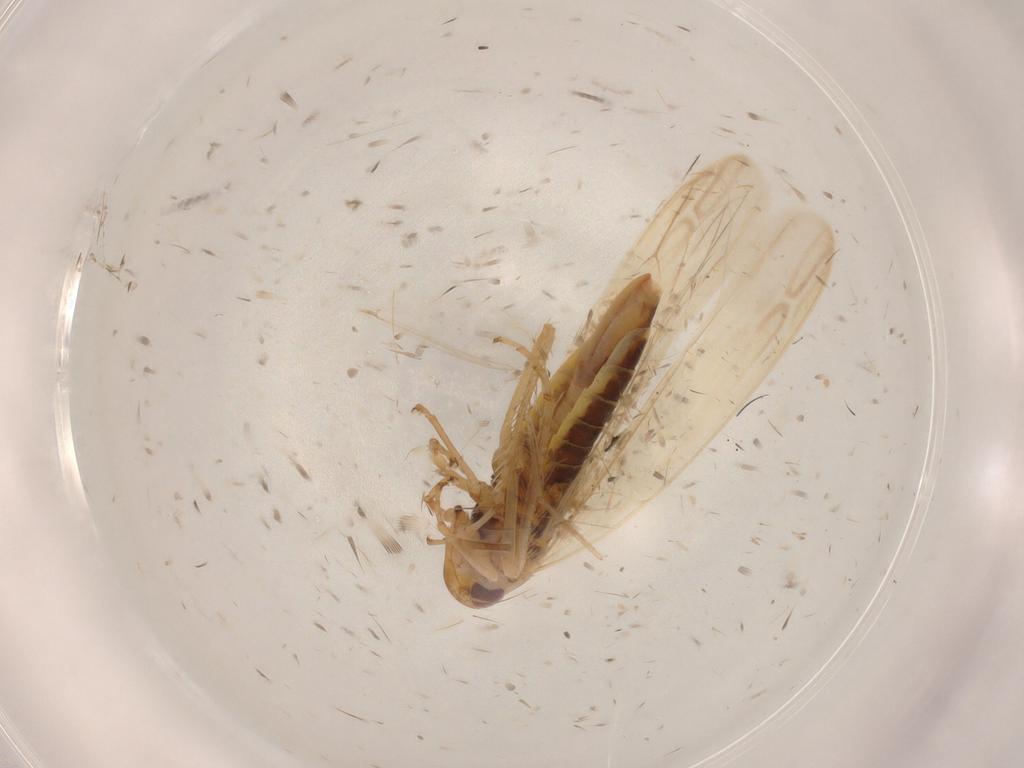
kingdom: Animalia
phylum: Arthropoda
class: Insecta
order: Hemiptera
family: Cicadellidae
